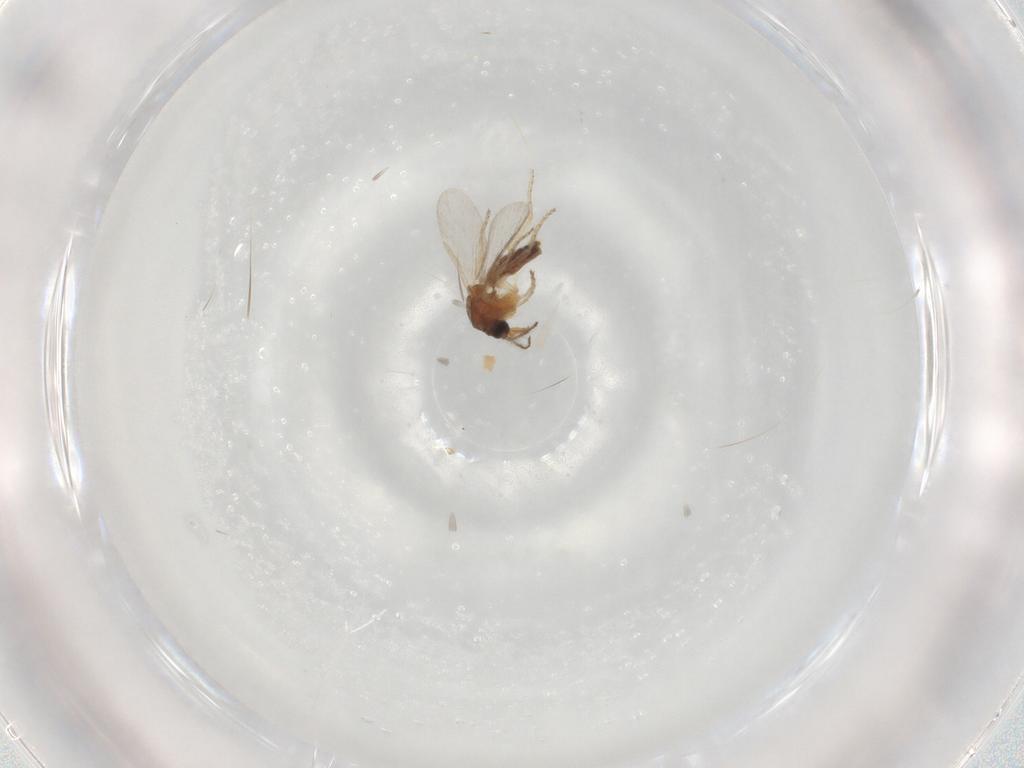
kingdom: Animalia
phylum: Arthropoda
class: Insecta
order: Diptera
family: Ceratopogonidae
